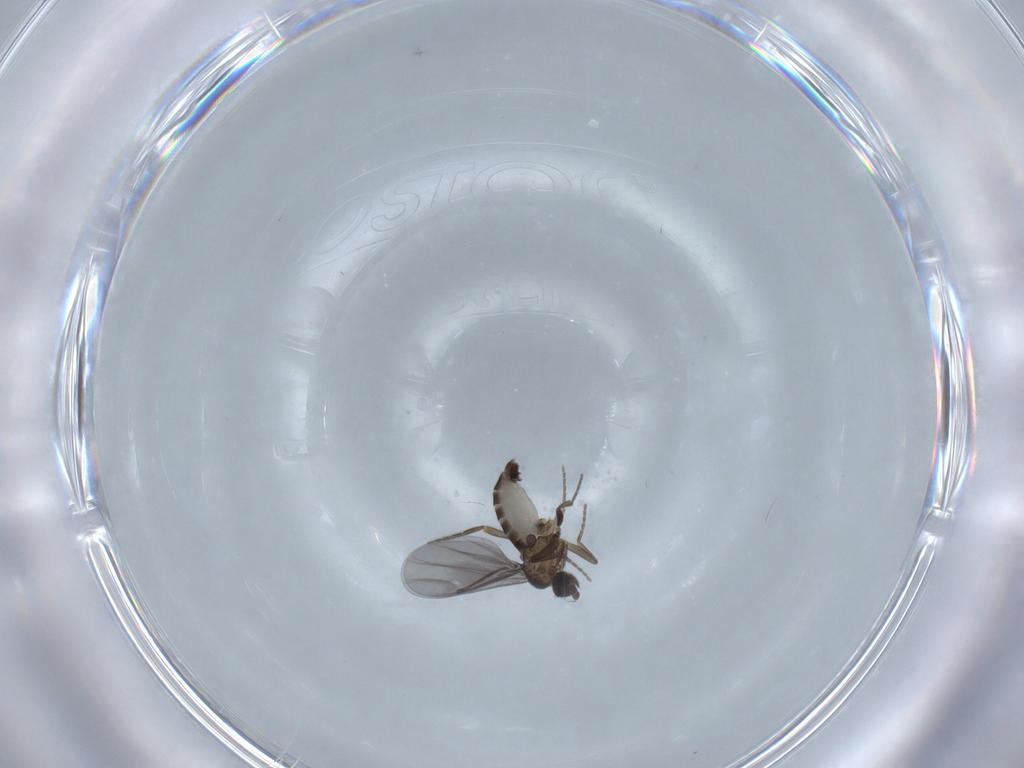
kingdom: Animalia
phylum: Arthropoda
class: Insecta
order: Diptera
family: Phoridae
